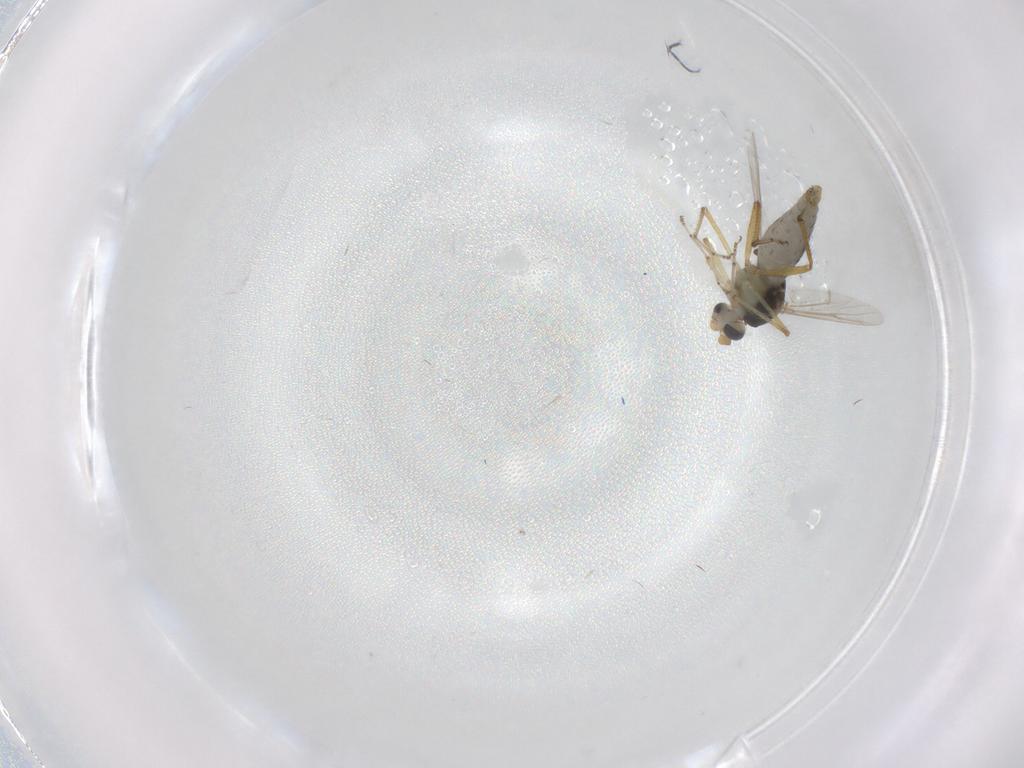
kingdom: Animalia
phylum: Arthropoda
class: Insecta
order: Diptera
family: Ceratopogonidae
